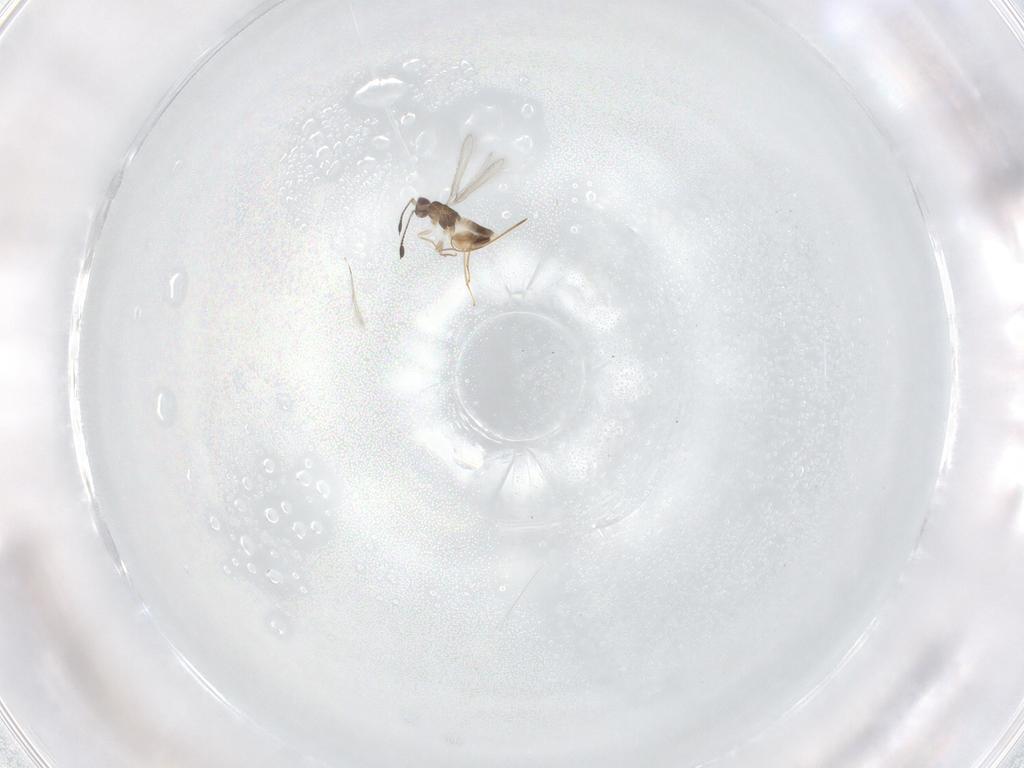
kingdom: Animalia
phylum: Arthropoda
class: Insecta
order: Hymenoptera
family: Mymaridae
